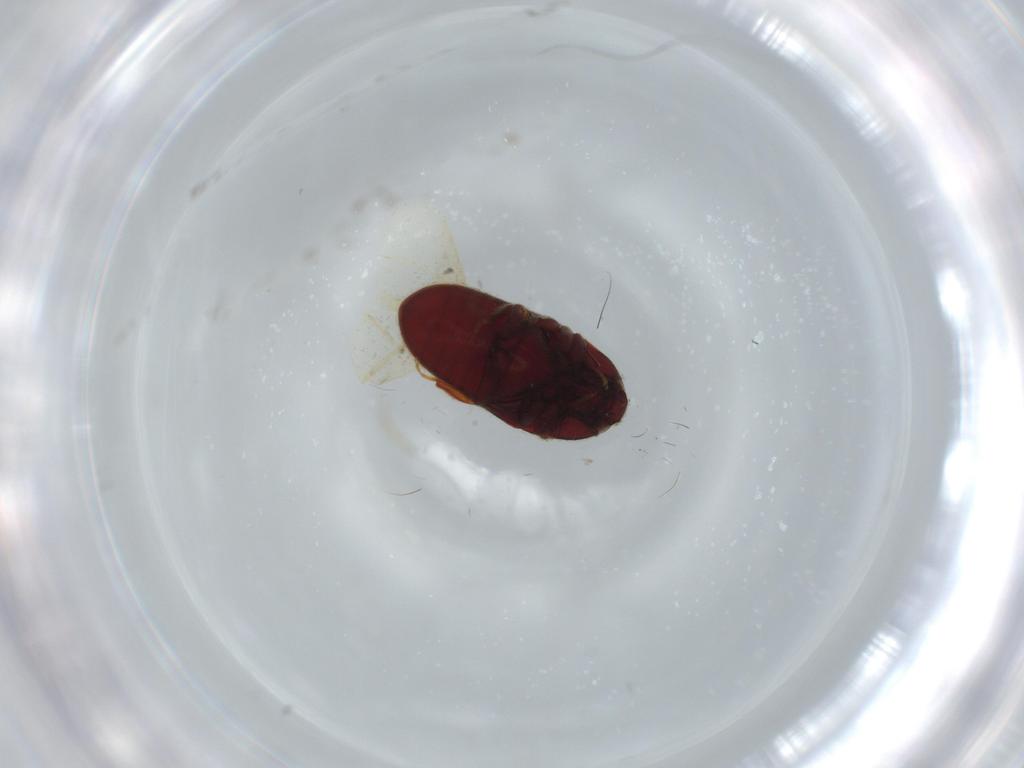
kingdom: Animalia
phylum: Arthropoda
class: Insecta
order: Coleoptera
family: Throscidae
